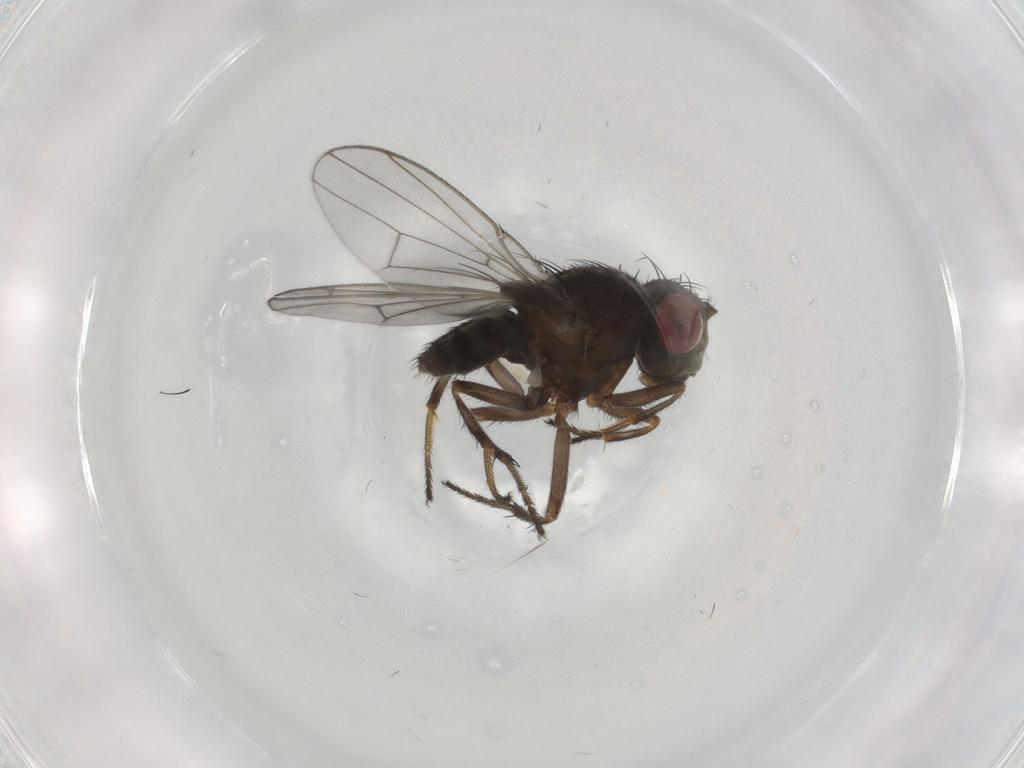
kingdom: Animalia
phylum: Arthropoda
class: Insecta
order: Diptera
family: Ephydridae
